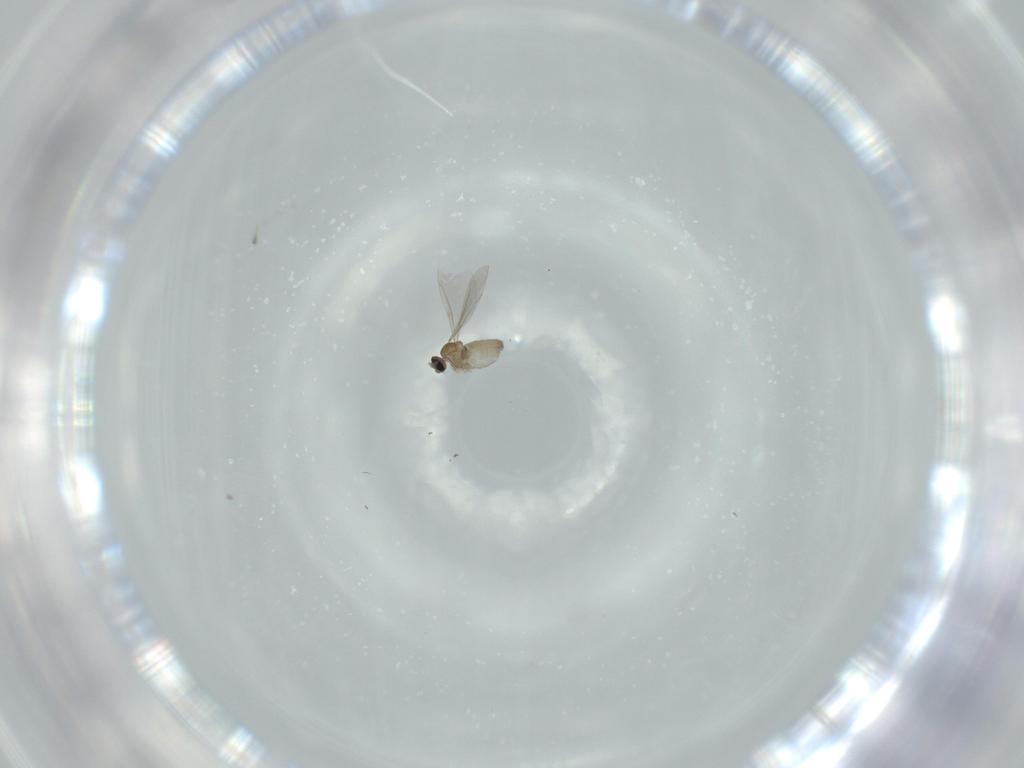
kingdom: Animalia
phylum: Arthropoda
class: Insecta
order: Diptera
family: Cecidomyiidae
